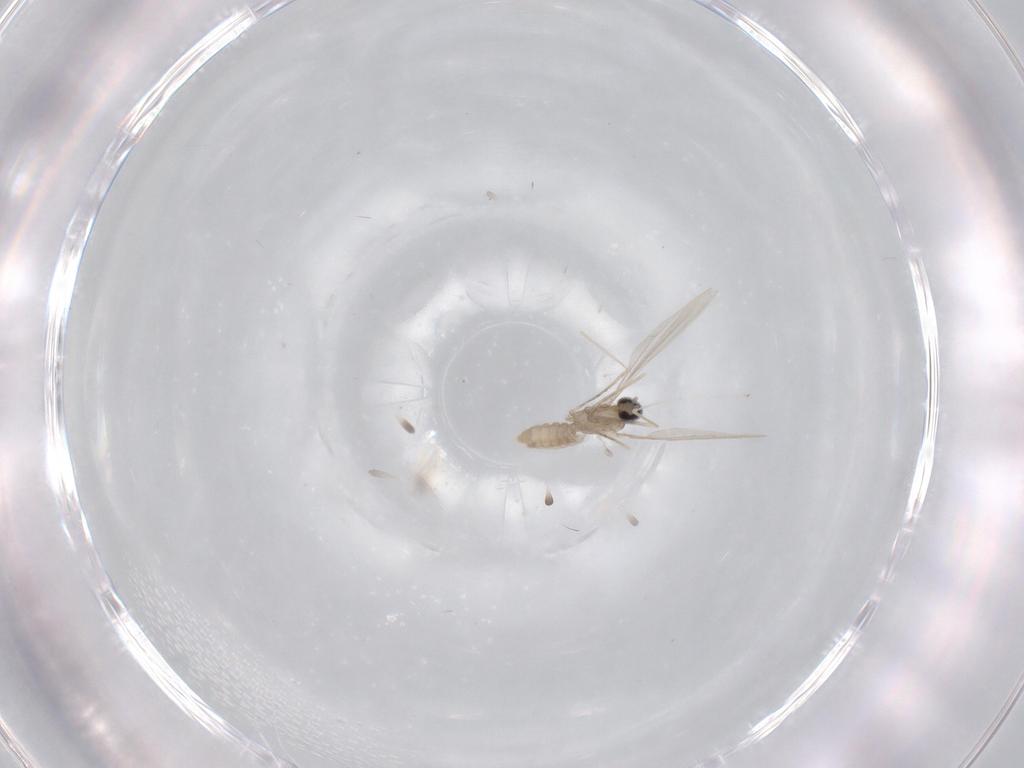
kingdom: Animalia
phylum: Arthropoda
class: Insecta
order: Diptera
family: Cecidomyiidae
